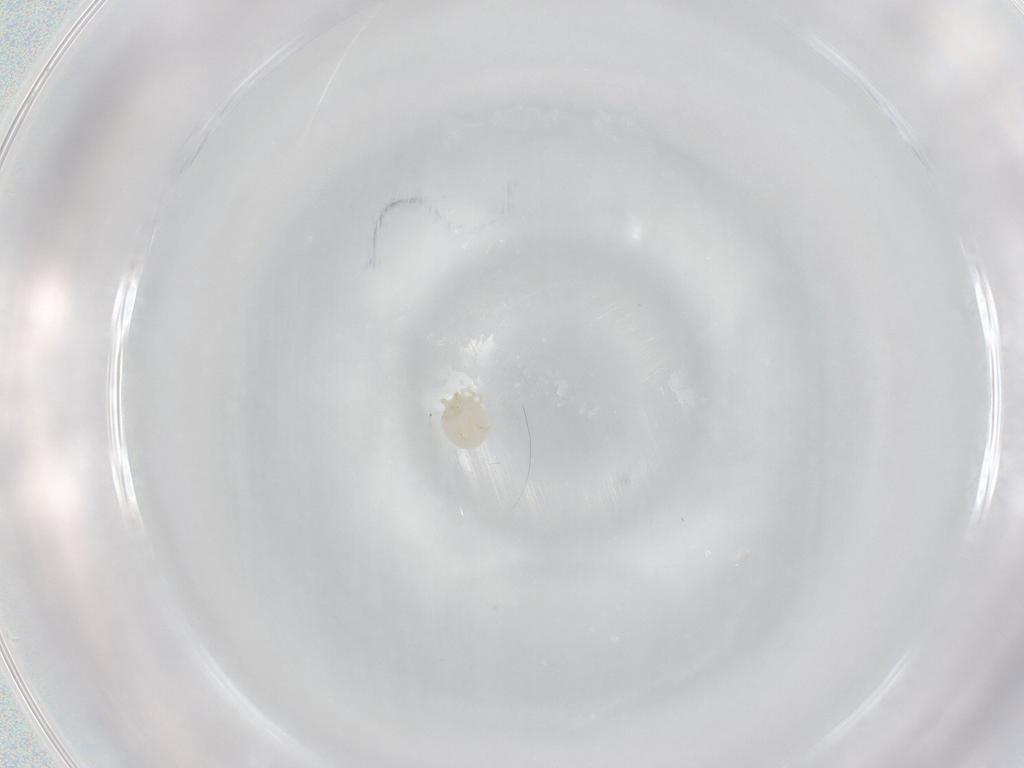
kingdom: Animalia
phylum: Arthropoda
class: Arachnida
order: Trombidiformes
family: Hydryphantidae
